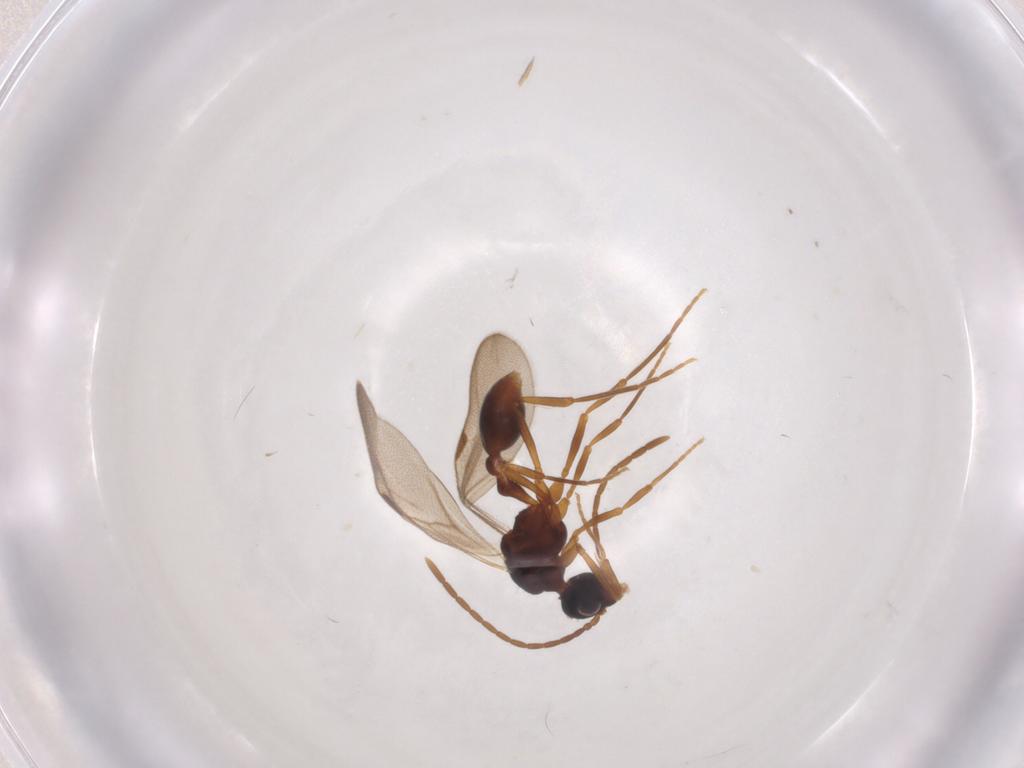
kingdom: Animalia
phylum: Arthropoda
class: Insecta
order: Hymenoptera
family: Formicidae
